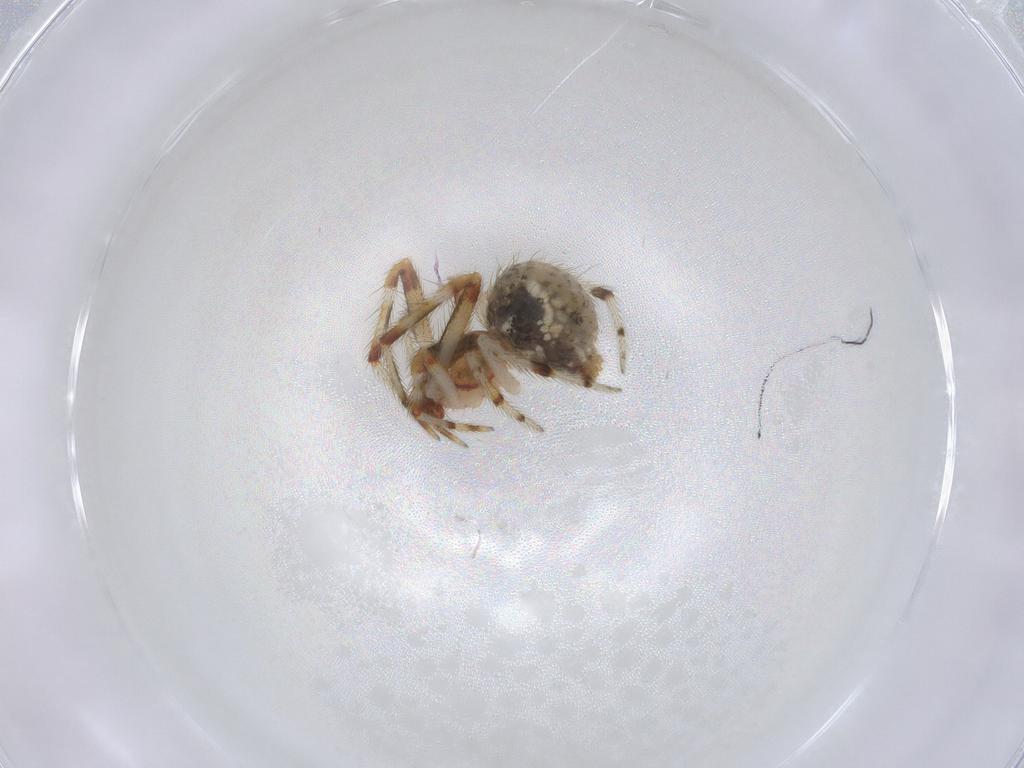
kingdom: Animalia
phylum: Arthropoda
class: Arachnida
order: Araneae
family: Theridiidae
